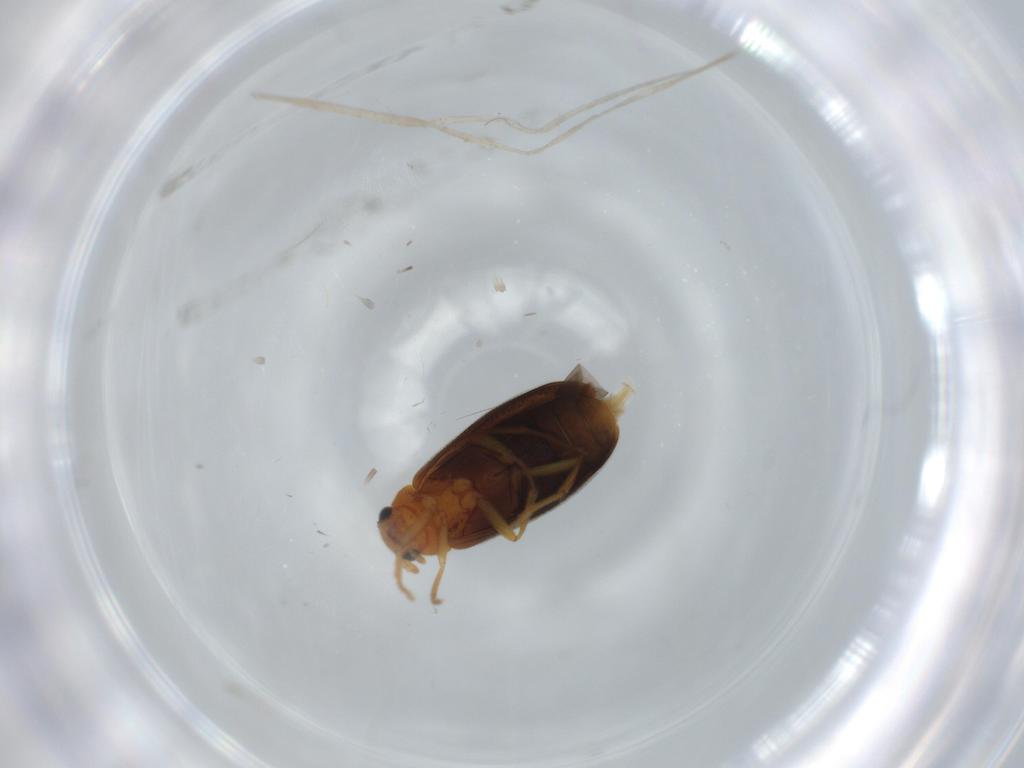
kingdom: Animalia
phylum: Arthropoda
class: Insecta
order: Coleoptera
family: Melandryidae
